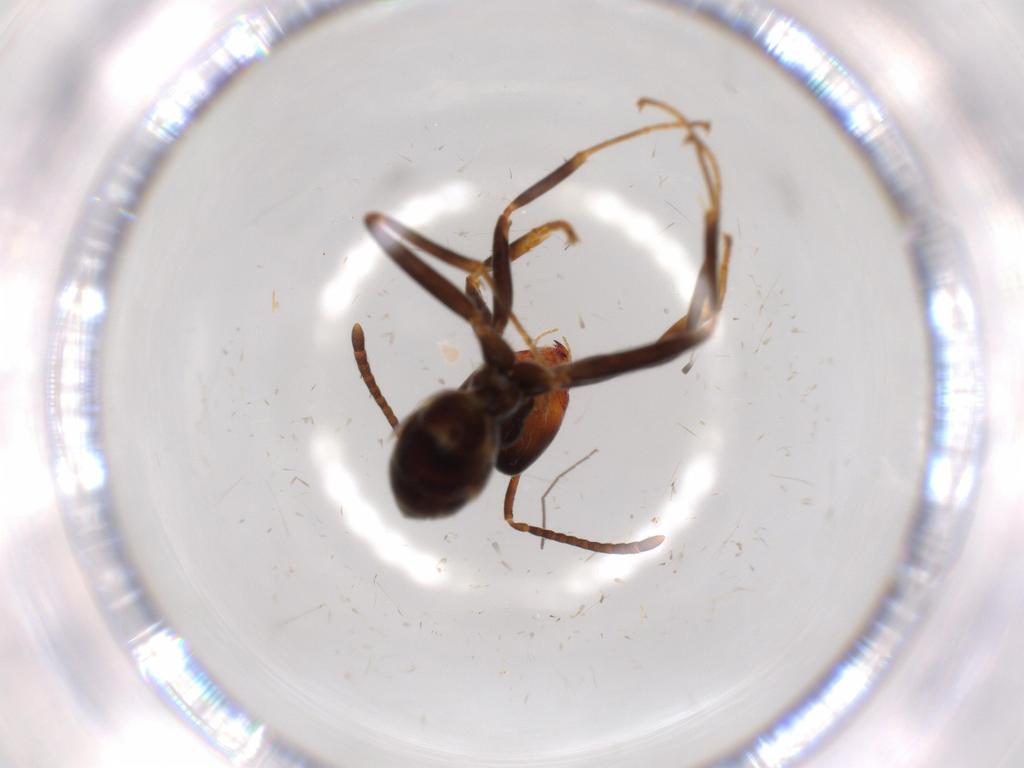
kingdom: Animalia
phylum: Arthropoda
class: Insecta
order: Hymenoptera
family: Formicidae
